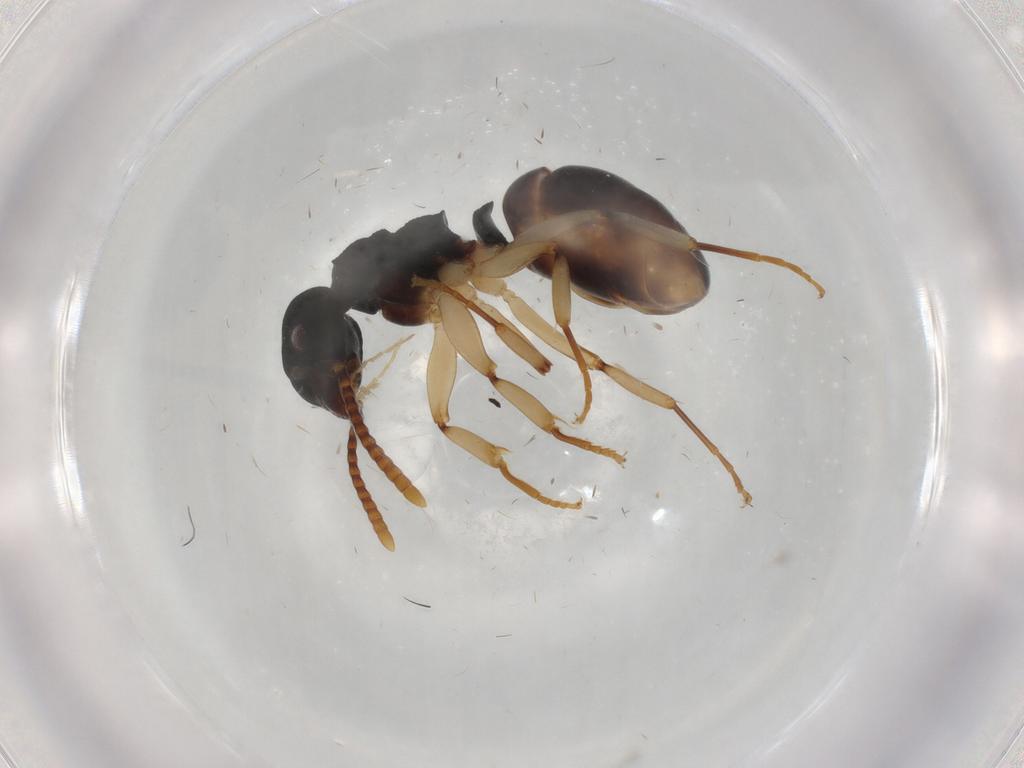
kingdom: Animalia
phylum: Arthropoda
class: Insecta
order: Hymenoptera
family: Formicidae
